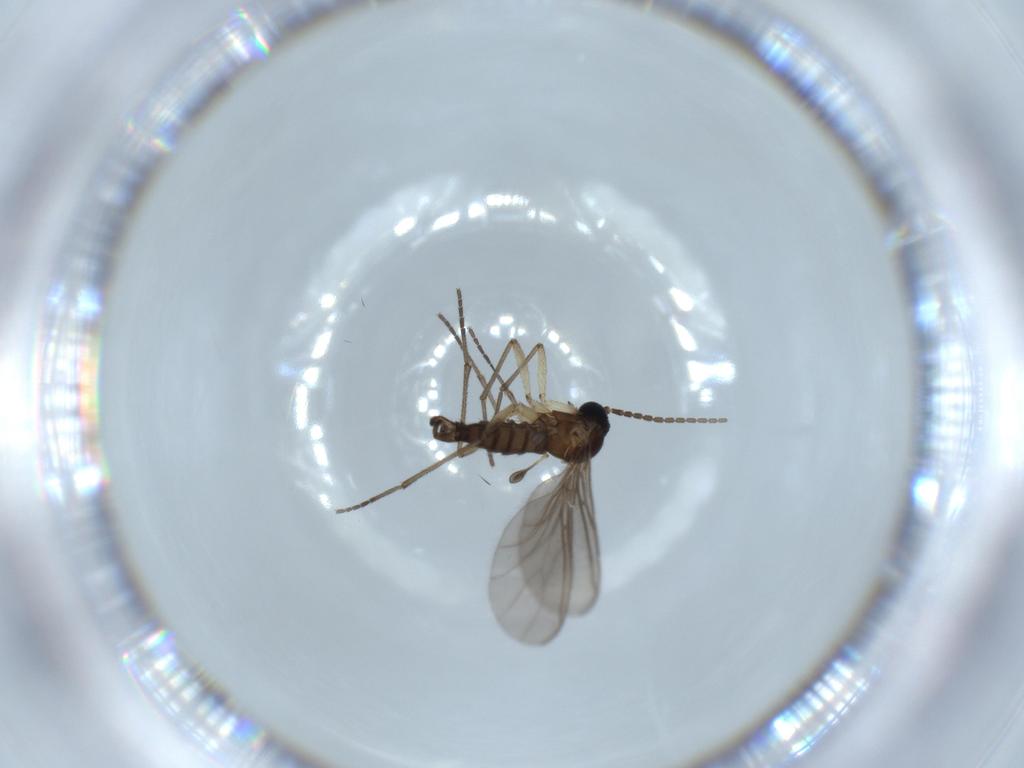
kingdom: Animalia
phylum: Arthropoda
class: Insecta
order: Diptera
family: Sciaridae
